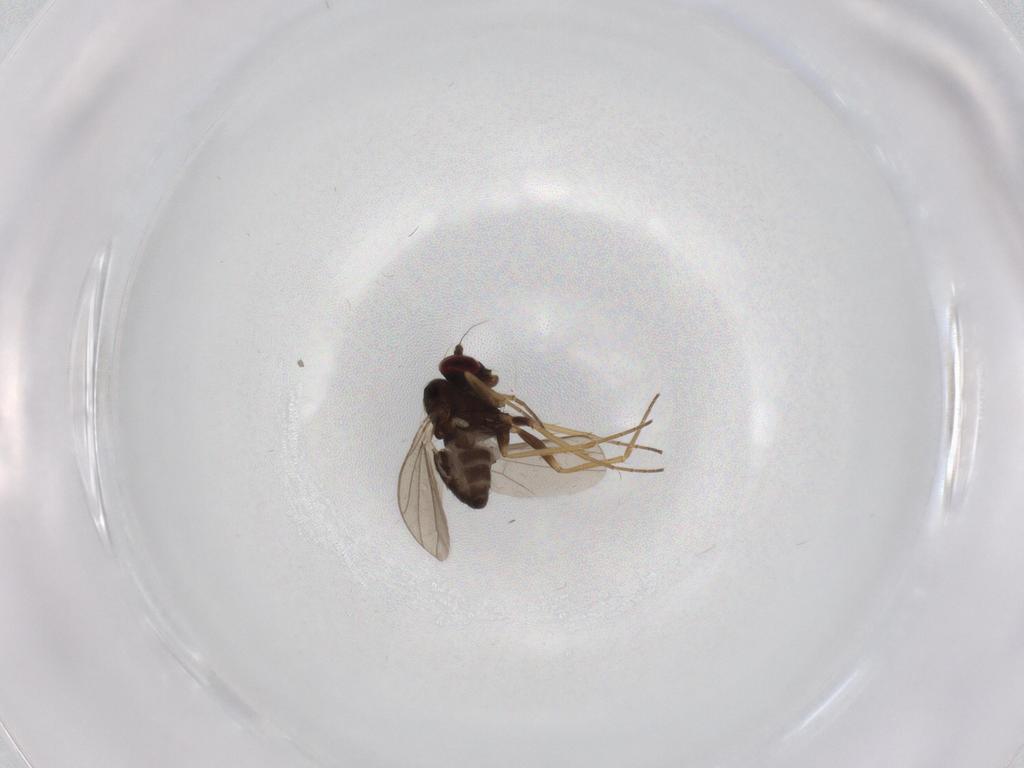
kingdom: Animalia
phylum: Arthropoda
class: Insecta
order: Diptera
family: Dolichopodidae
